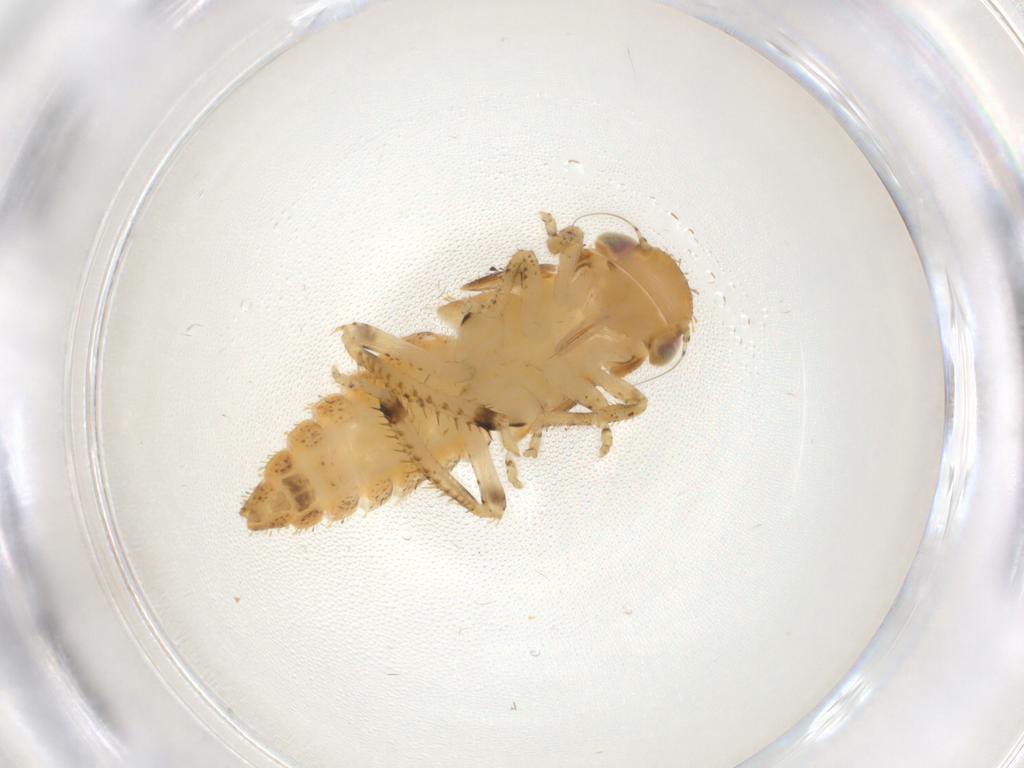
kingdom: Animalia
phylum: Arthropoda
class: Insecta
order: Hemiptera
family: Cicadellidae
